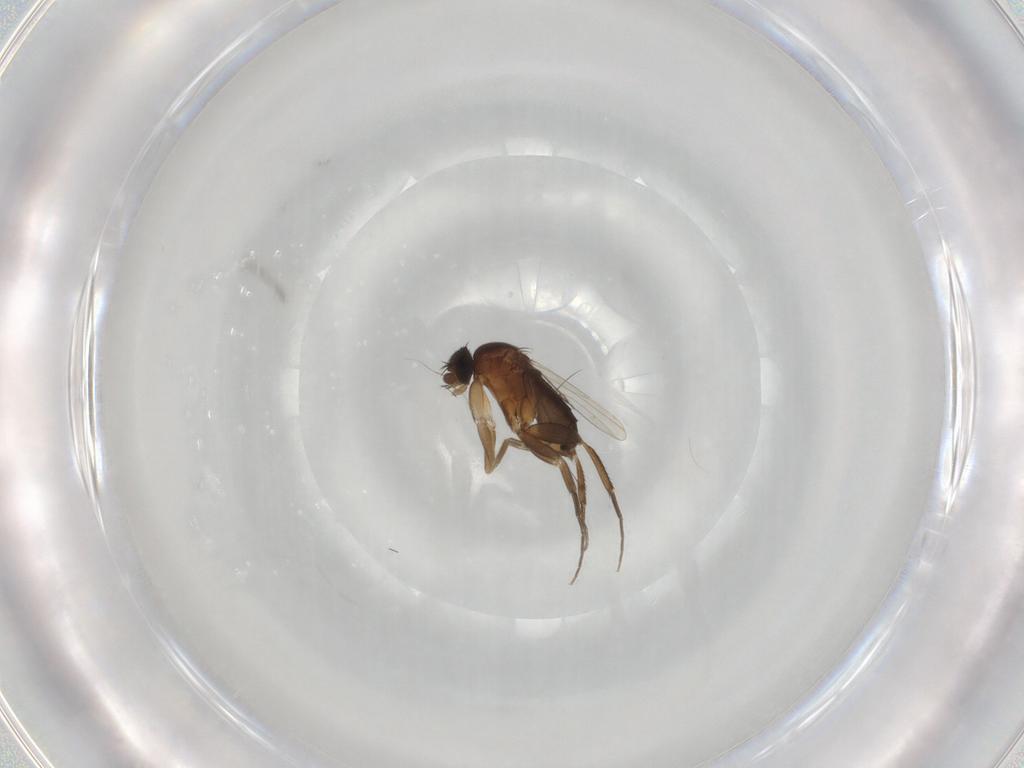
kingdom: Animalia
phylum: Arthropoda
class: Insecta
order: Diptera
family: Phoridae
